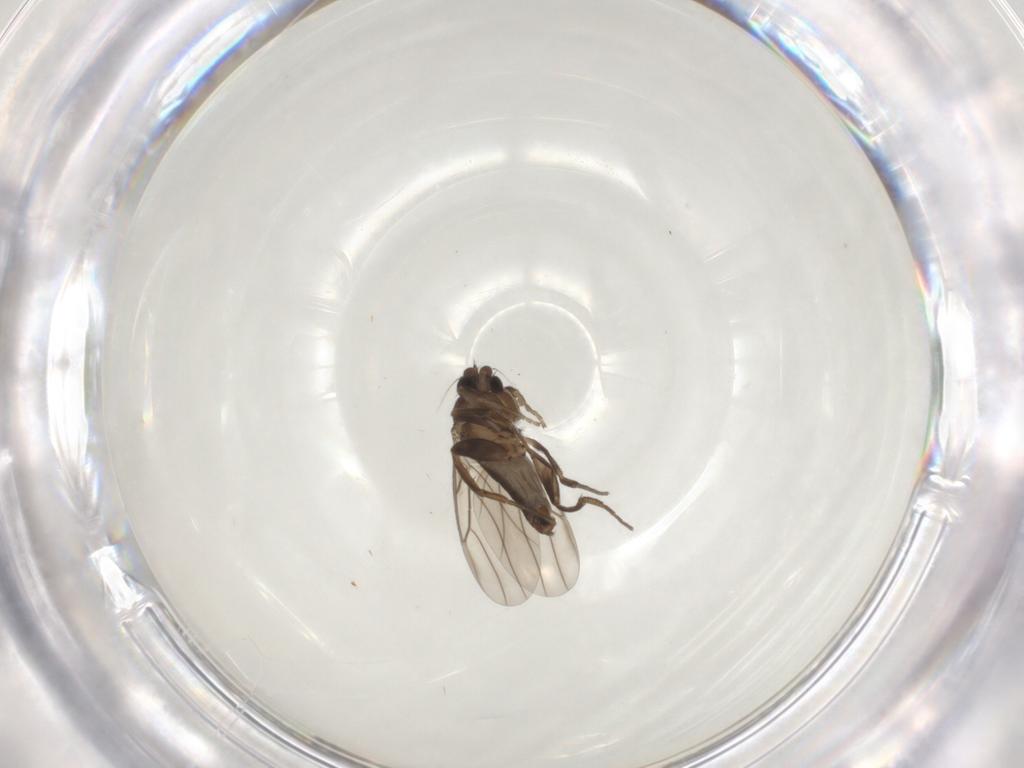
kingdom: Animalia
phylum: Arthropoda
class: Insecta
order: Diptera
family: Phoridae
